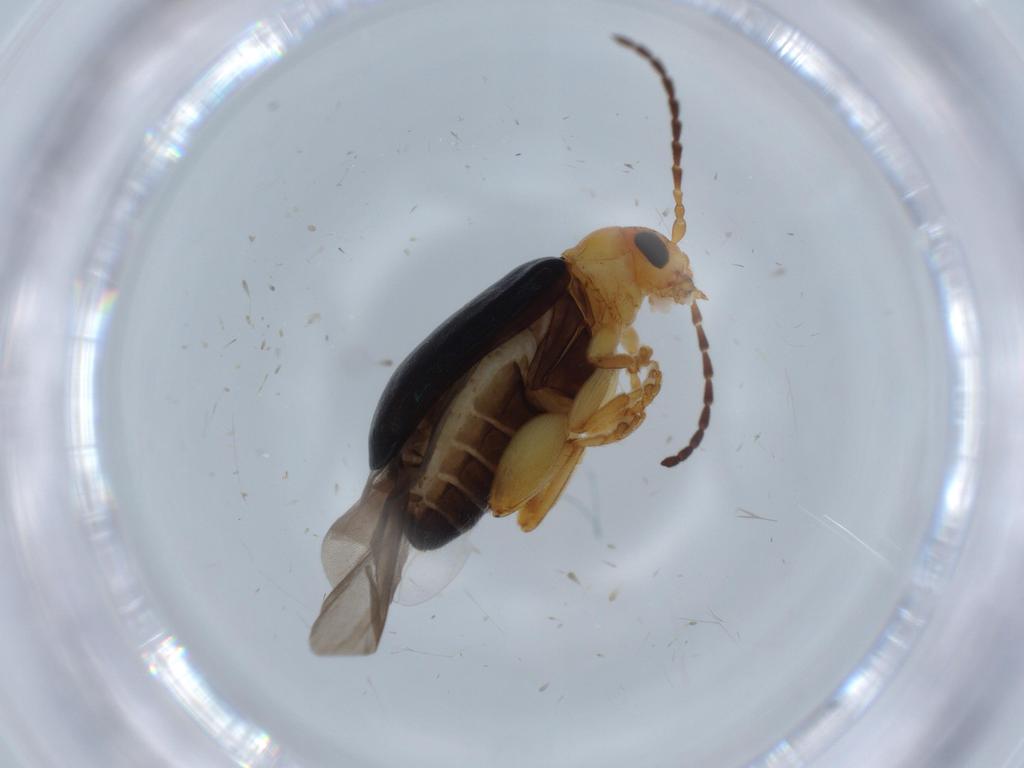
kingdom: Animalia
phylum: Arthropoda
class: Insecta
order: Coleoptera
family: Chrysomelidae
